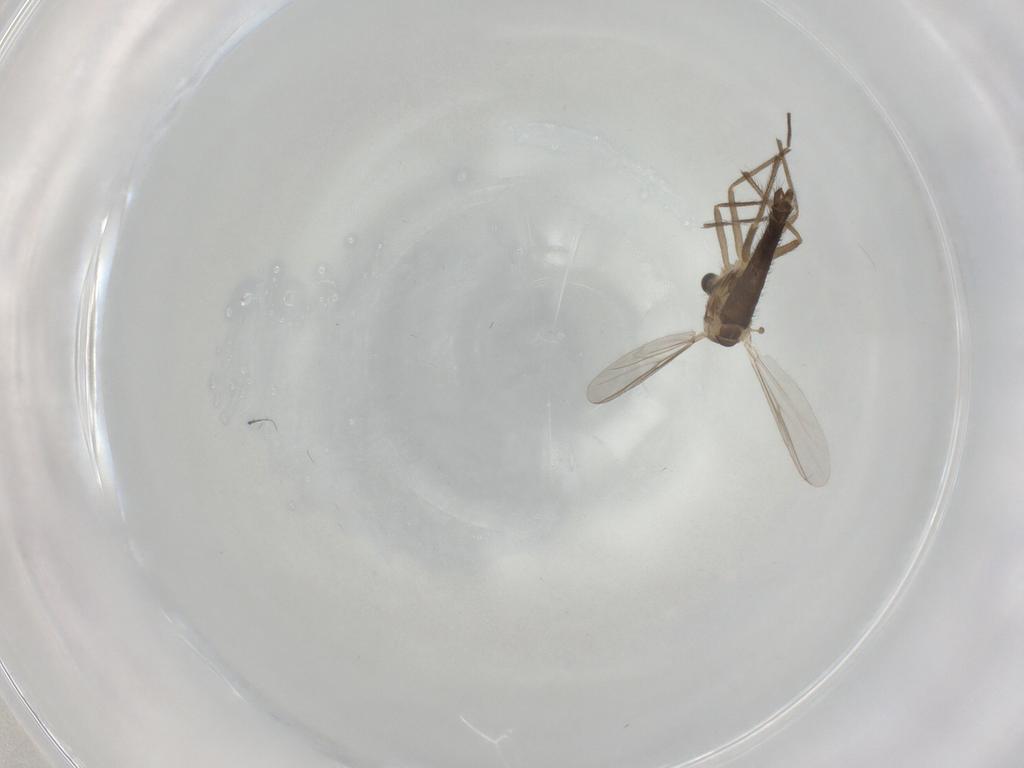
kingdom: Animalia
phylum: Arthropoda
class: Insecta
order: Diptera
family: Micropezidae
